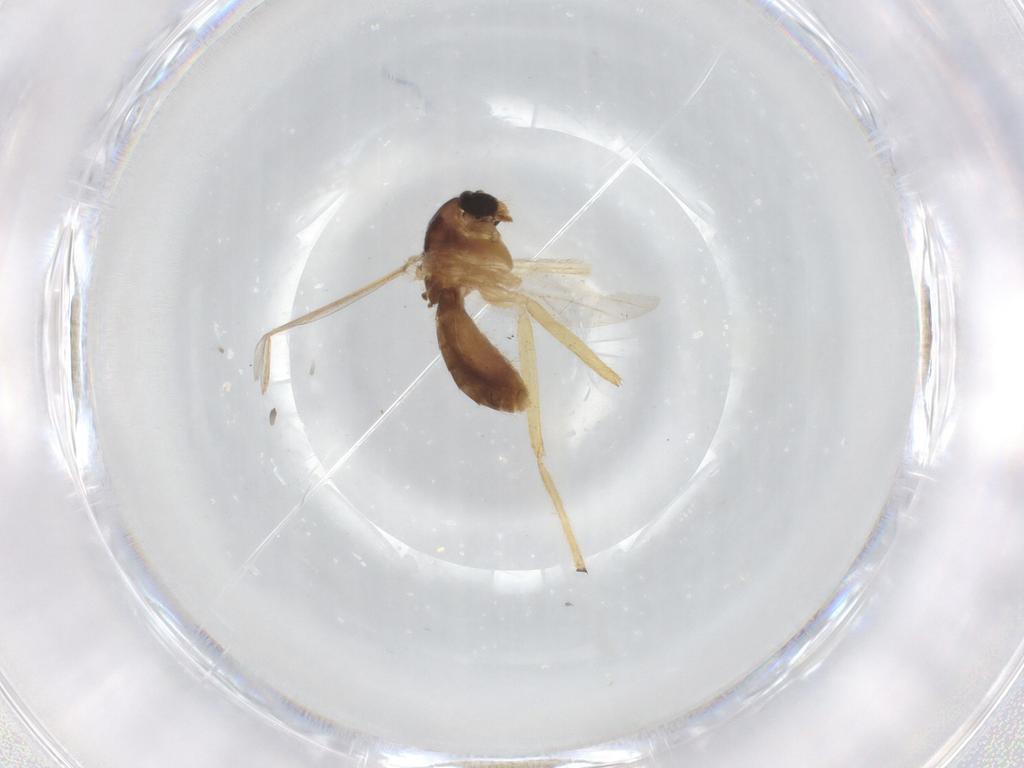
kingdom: Animalia
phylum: Arthropoda
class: Insecta
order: Diptera
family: Chironomidae
